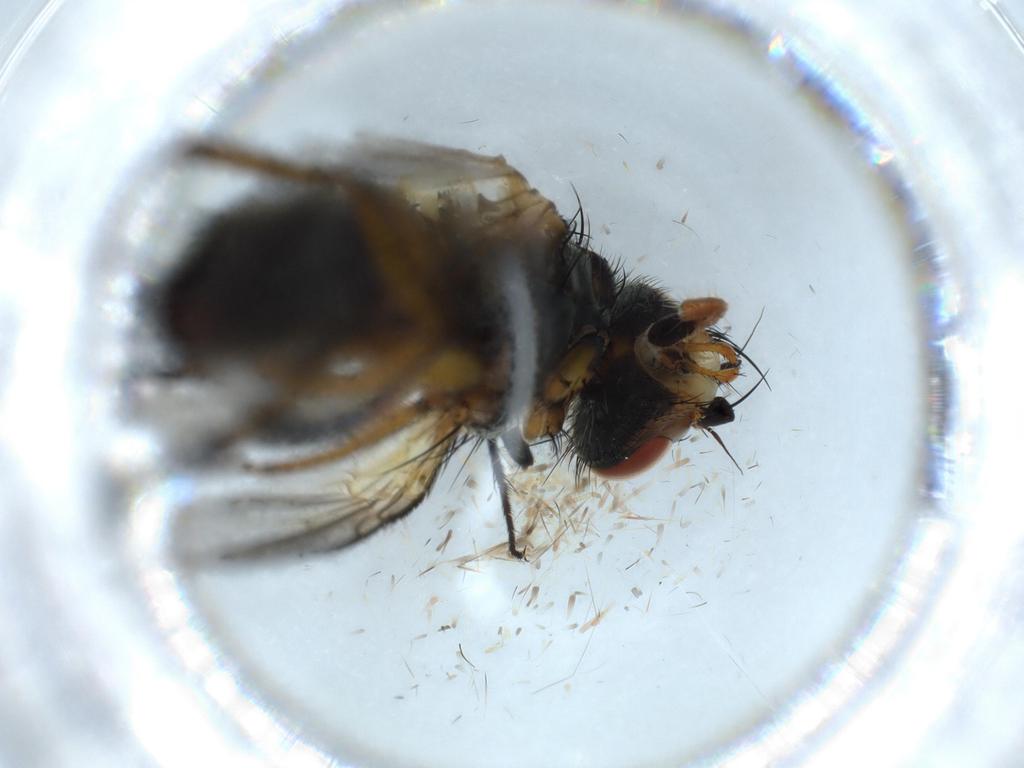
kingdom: Animalia
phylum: Arthropoda
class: Insecta
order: Diptera
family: Tachinidae
